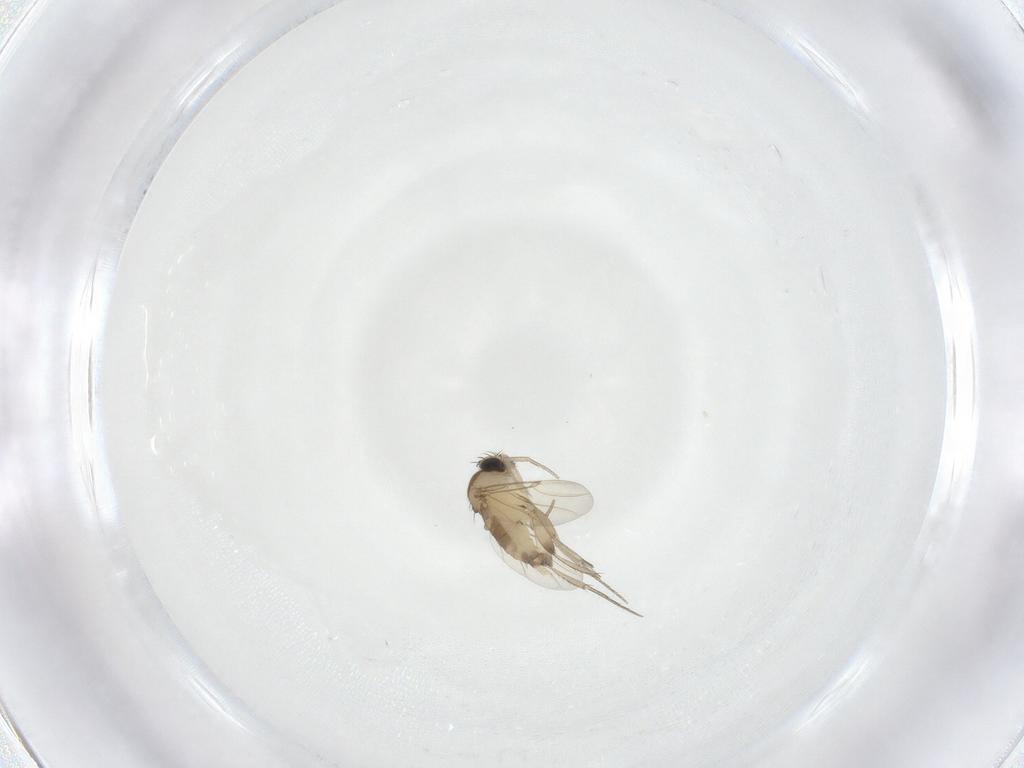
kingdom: Animalia
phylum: Arthropoda
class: Insecta
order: Diptera
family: Phoridae
